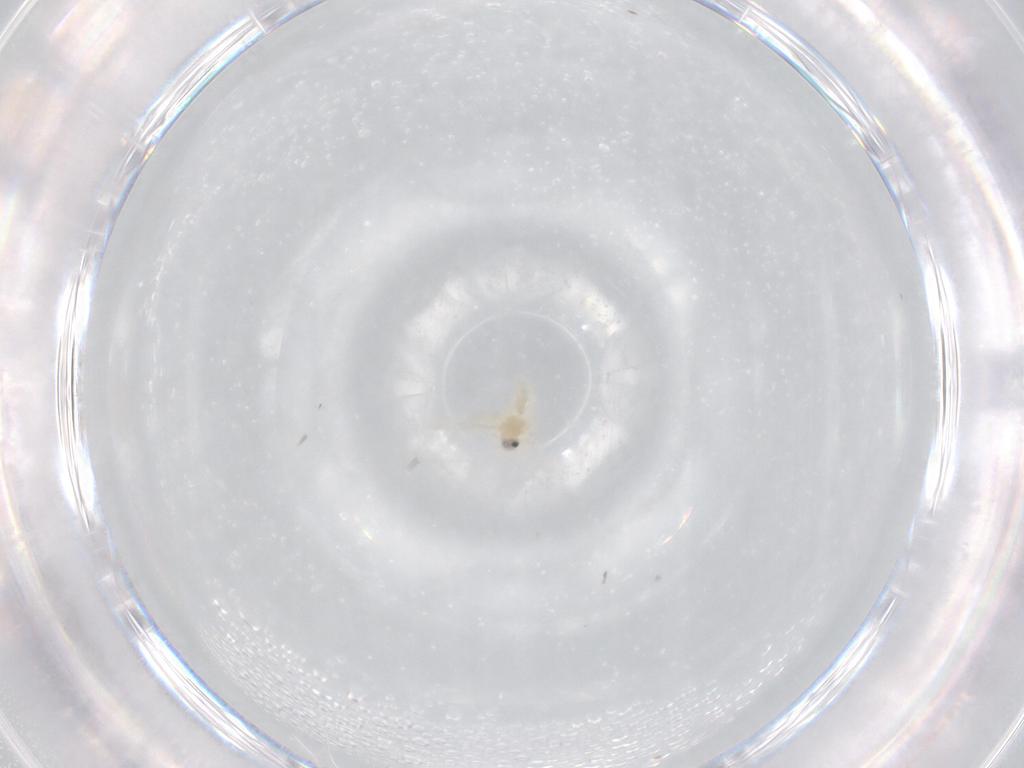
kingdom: Animalia
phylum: Arthropoda
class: Insecta
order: Hemiptera
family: Aleyrodidae
